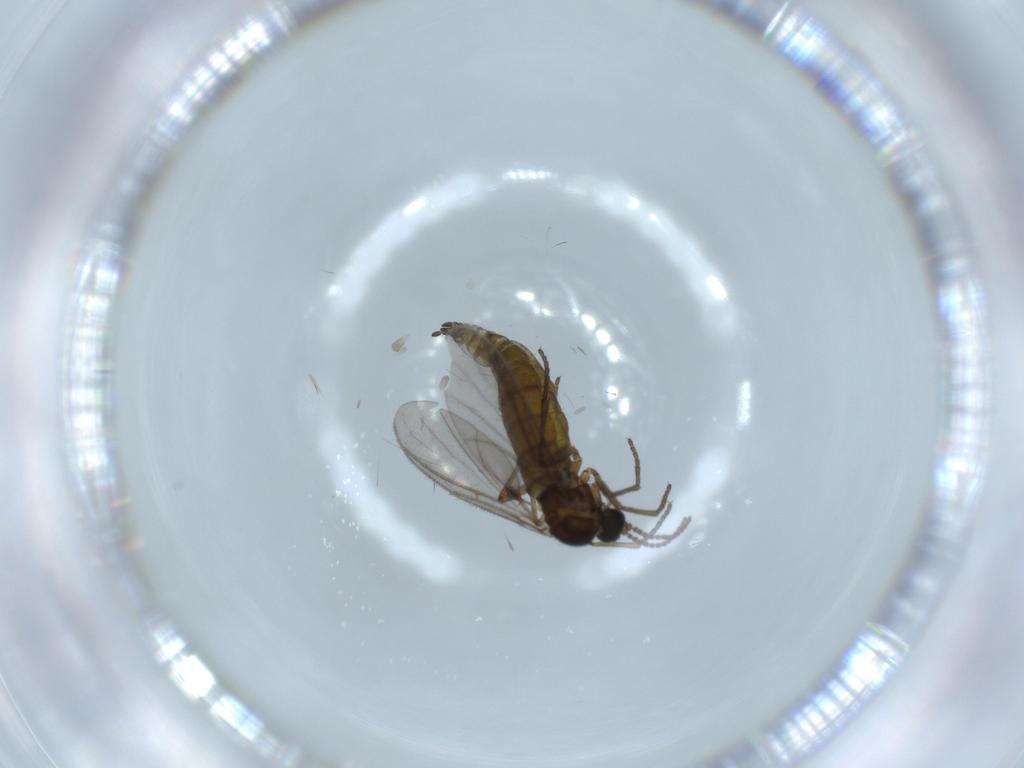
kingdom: Animalia
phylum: Arthropoda
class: Insecta
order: Diptera
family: Sciaridae
